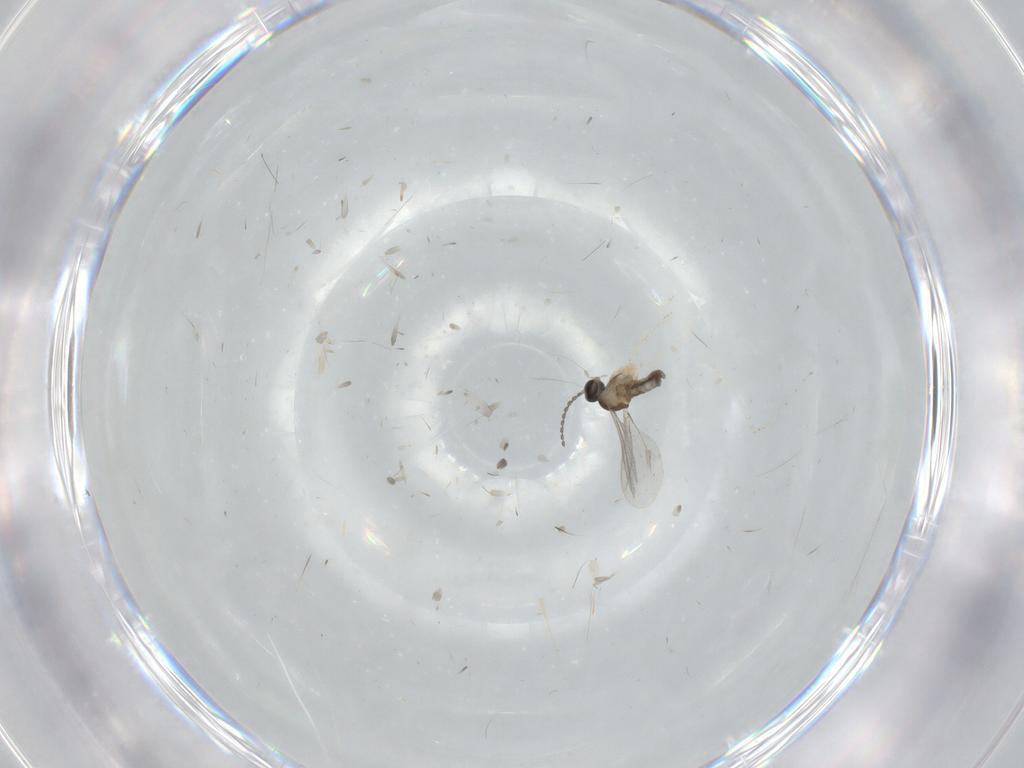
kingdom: Animalia
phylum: Arthropoda
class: Insecta
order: Diptera
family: Cecidomyiidae
